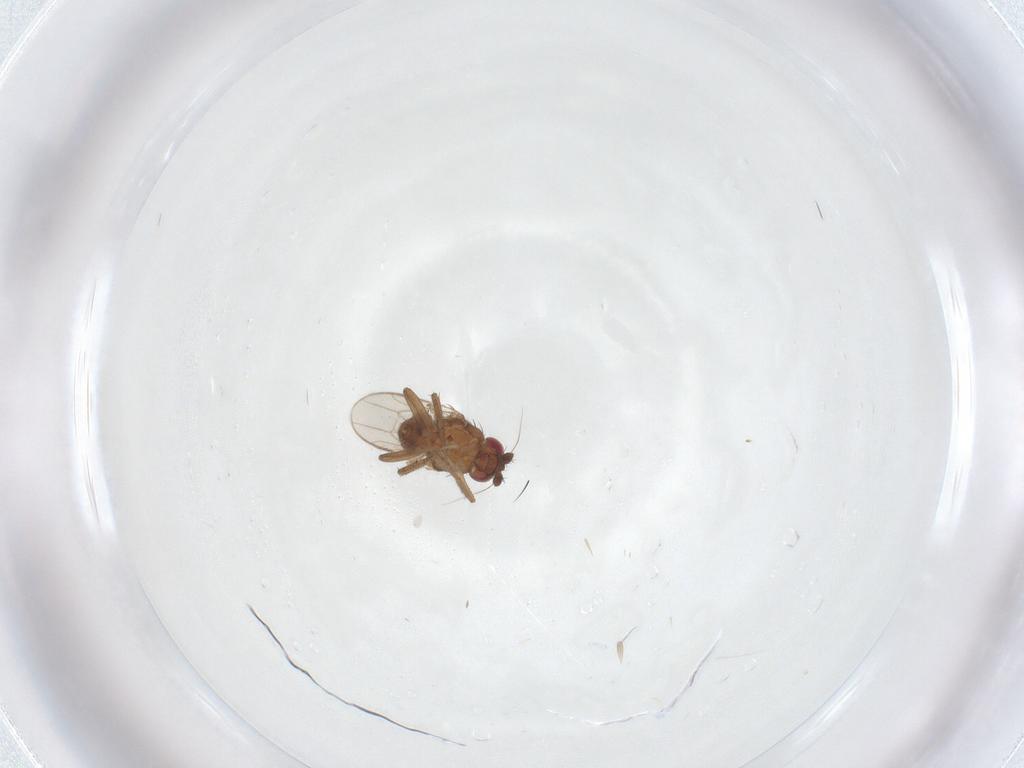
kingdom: Animalia
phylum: Arthropoda
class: Insecta
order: Diptera
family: Sphaeroceridae
